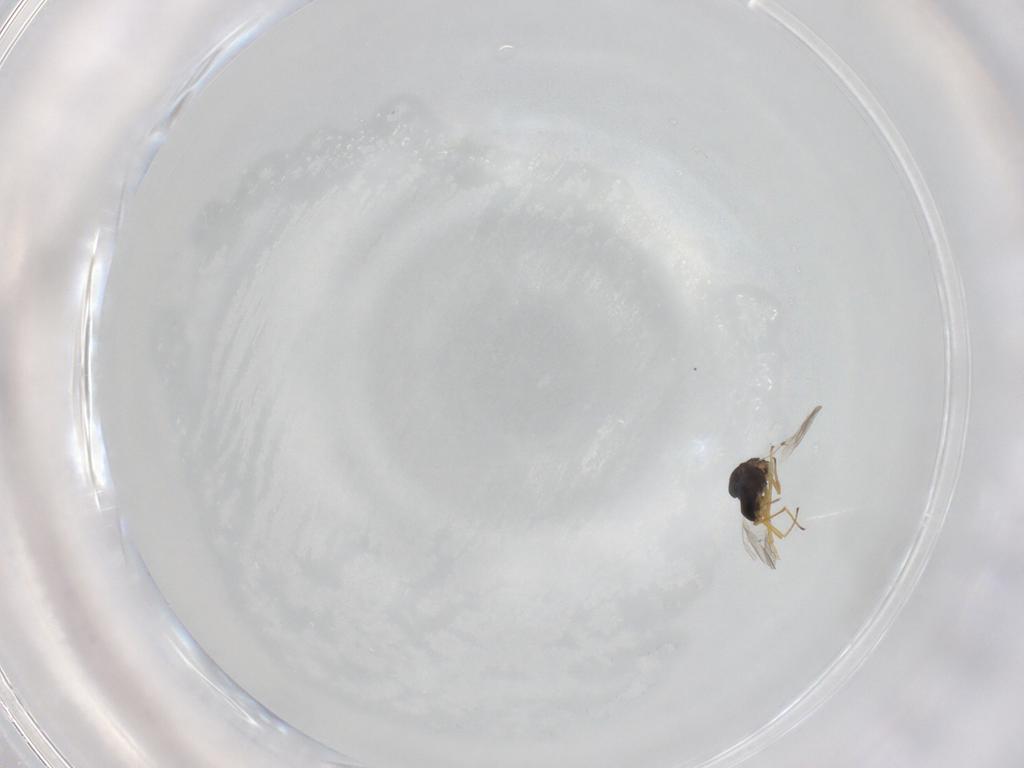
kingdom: Animalia
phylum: Arthropoda
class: Insecta
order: Hymenoptera
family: Encyrtidae
